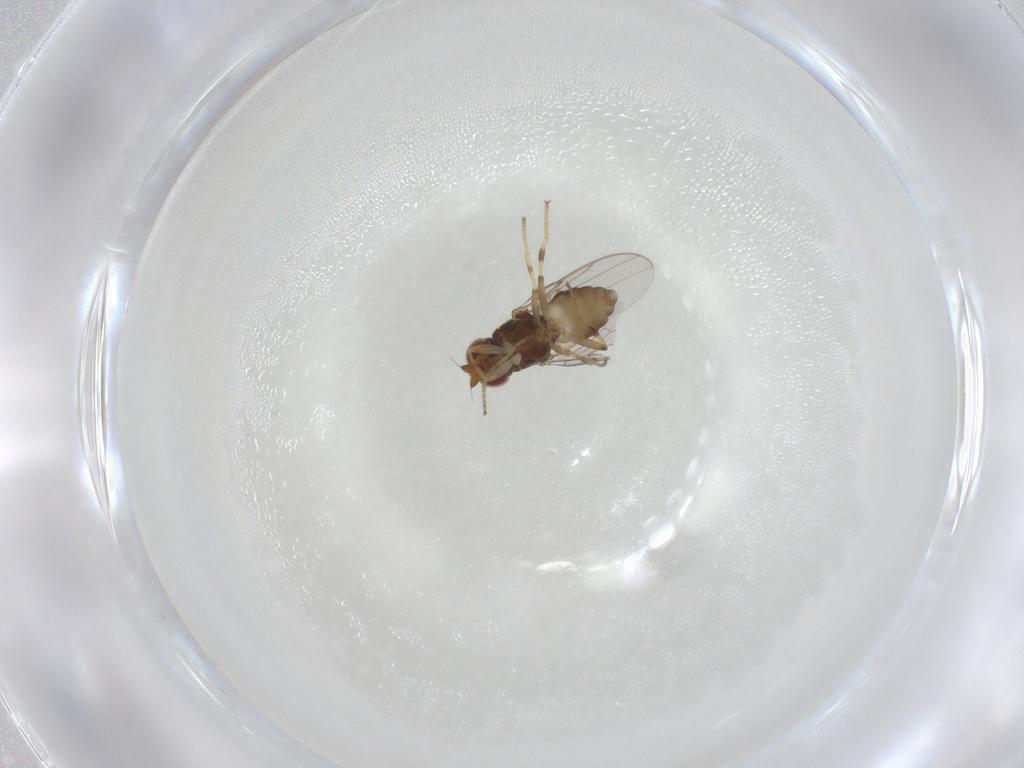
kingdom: Animalia
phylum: Arthropoda
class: Insecta
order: Diptera
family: Chloropidae
